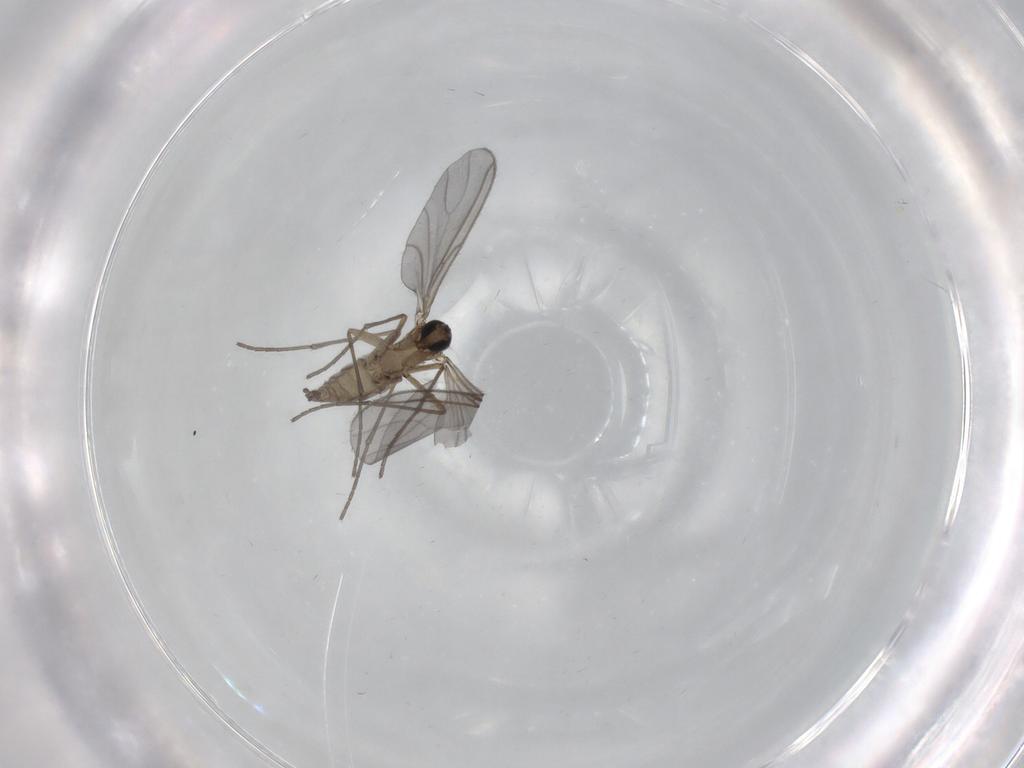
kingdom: Animalia
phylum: Arthropoda
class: Insecta
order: Diptera
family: Sciaridae
